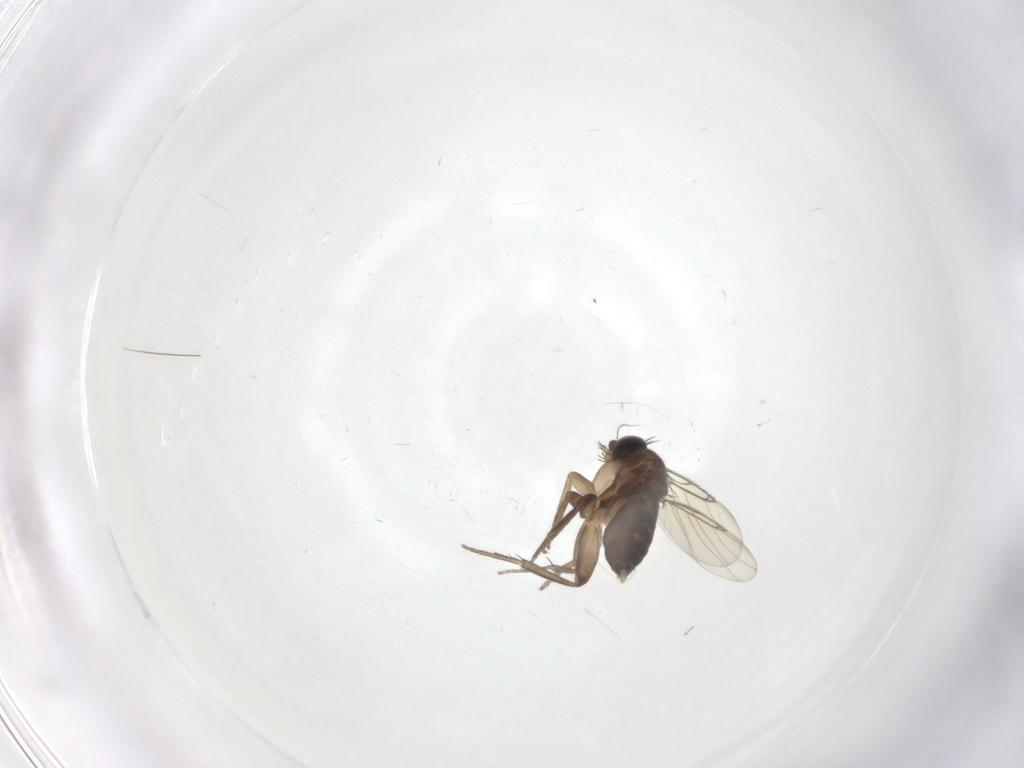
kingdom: Animalia
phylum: Arthropoda
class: Insecta
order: Diptera
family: Phoridae
